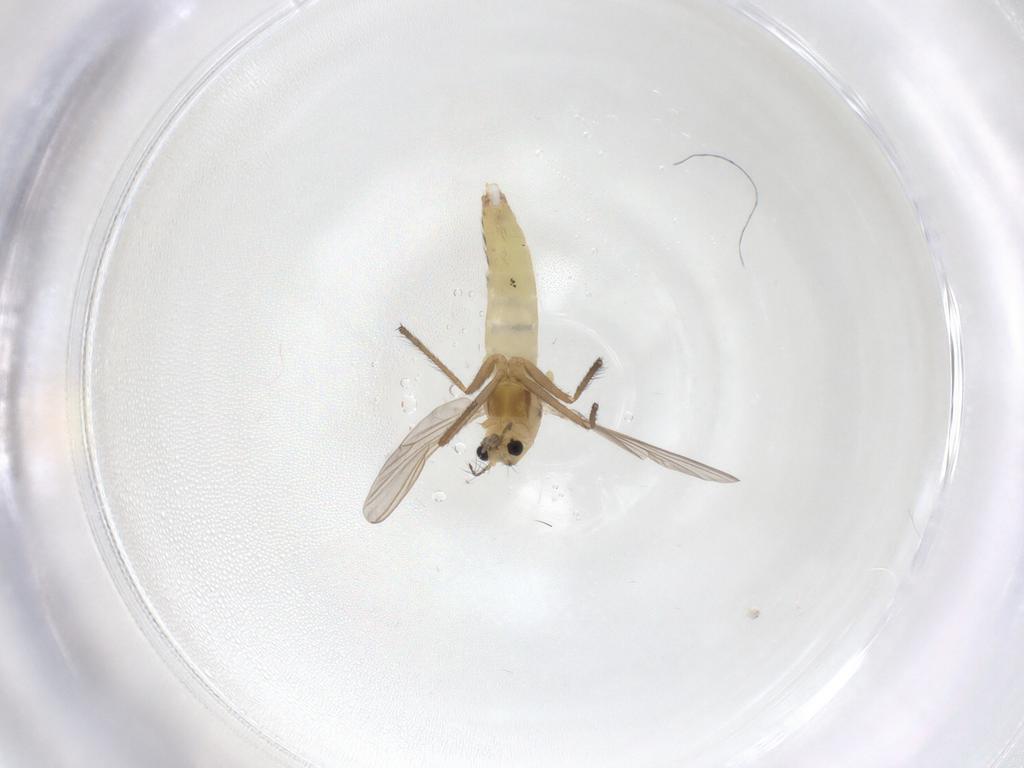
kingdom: Animalia
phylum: Arthropoda
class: Insecta
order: Diptera
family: Chironomidae
